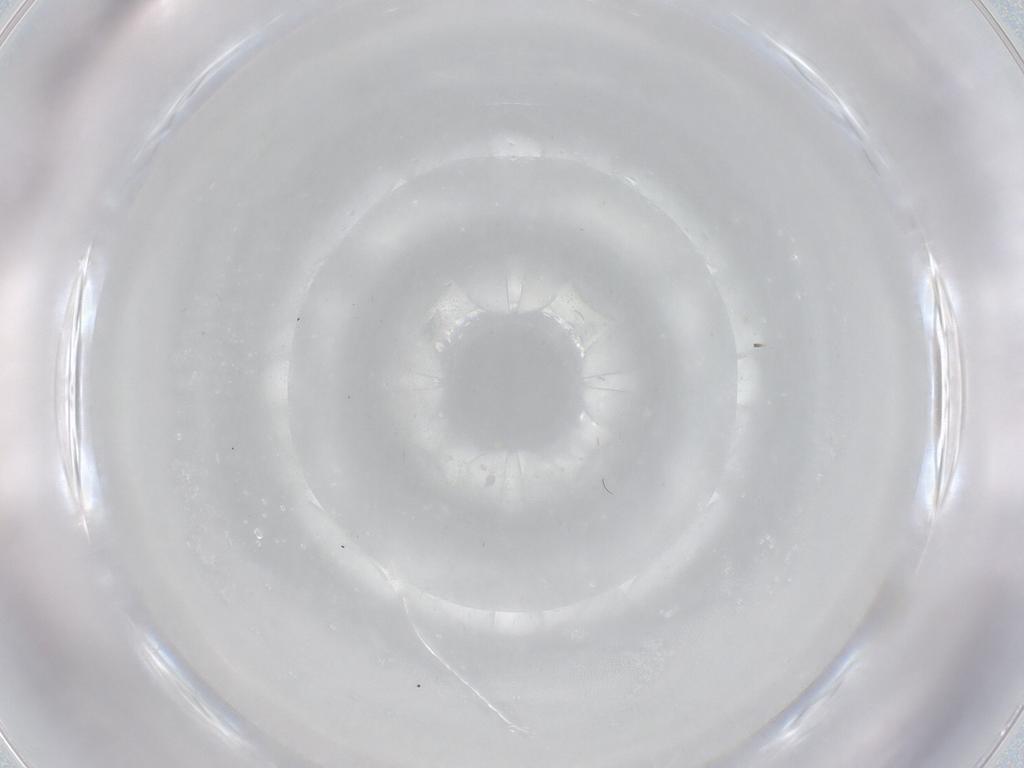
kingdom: Animalia
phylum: Arthropoda
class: Insecta
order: Diptera
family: Cecidomyiidae
